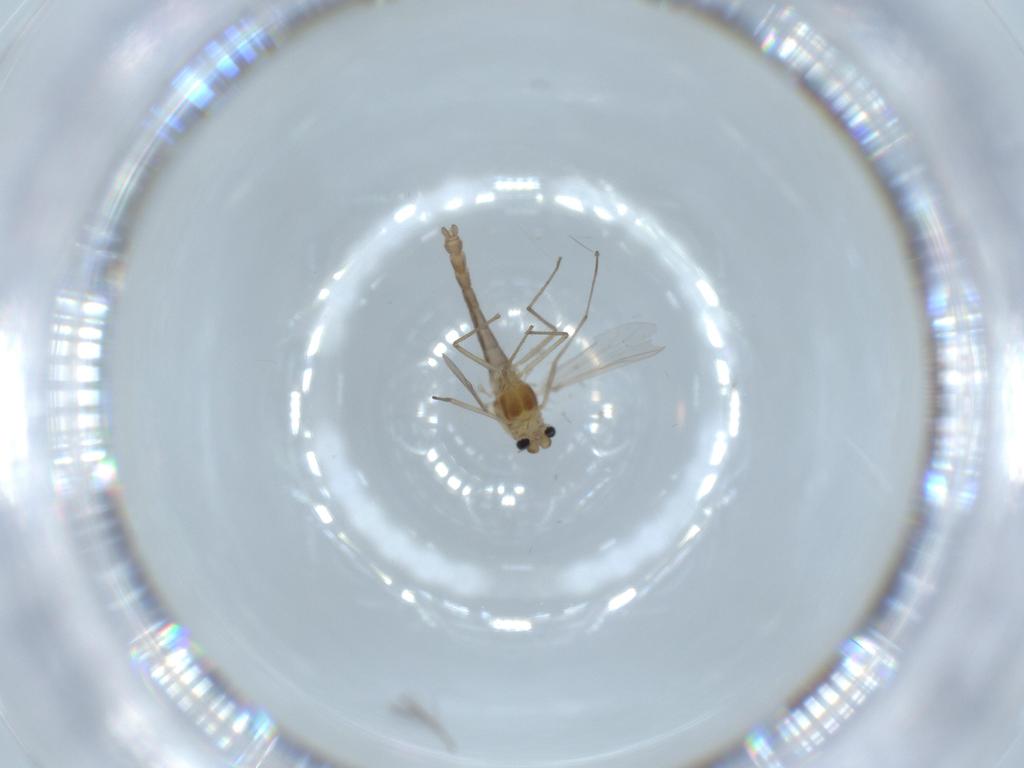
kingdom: Animalia
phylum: Arthropoda
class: Insecta
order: Diptera
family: Chironomidae
